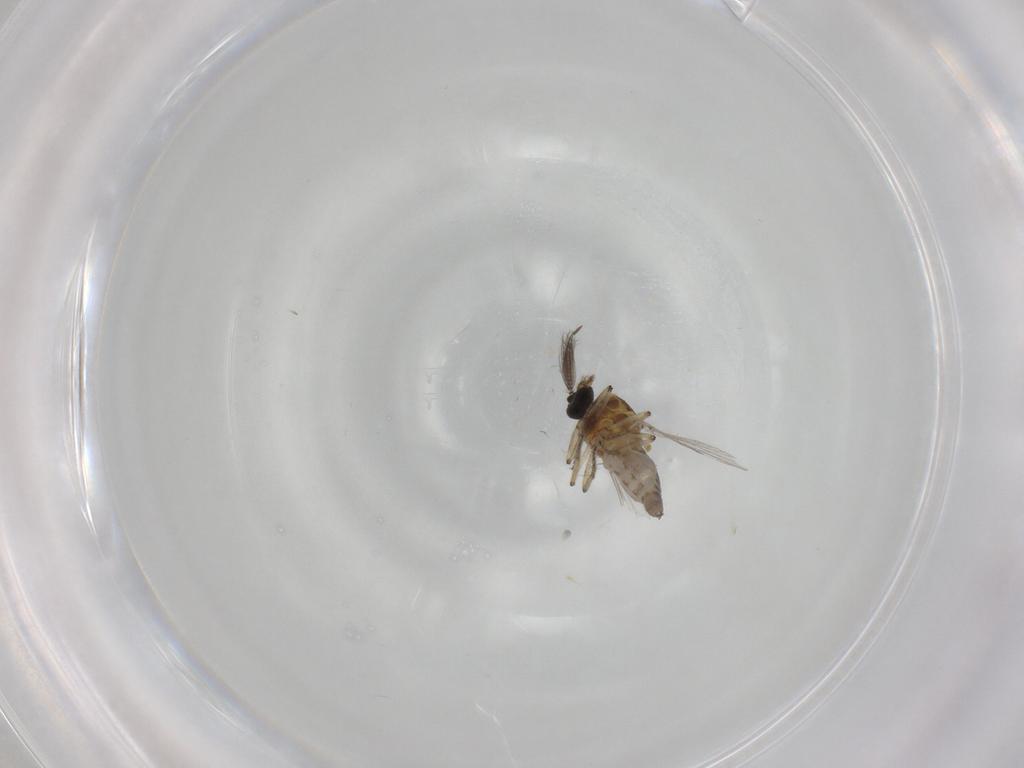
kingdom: Animalia
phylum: Arthropoda
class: Insecta
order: Diptera
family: Ceratopogonidae
